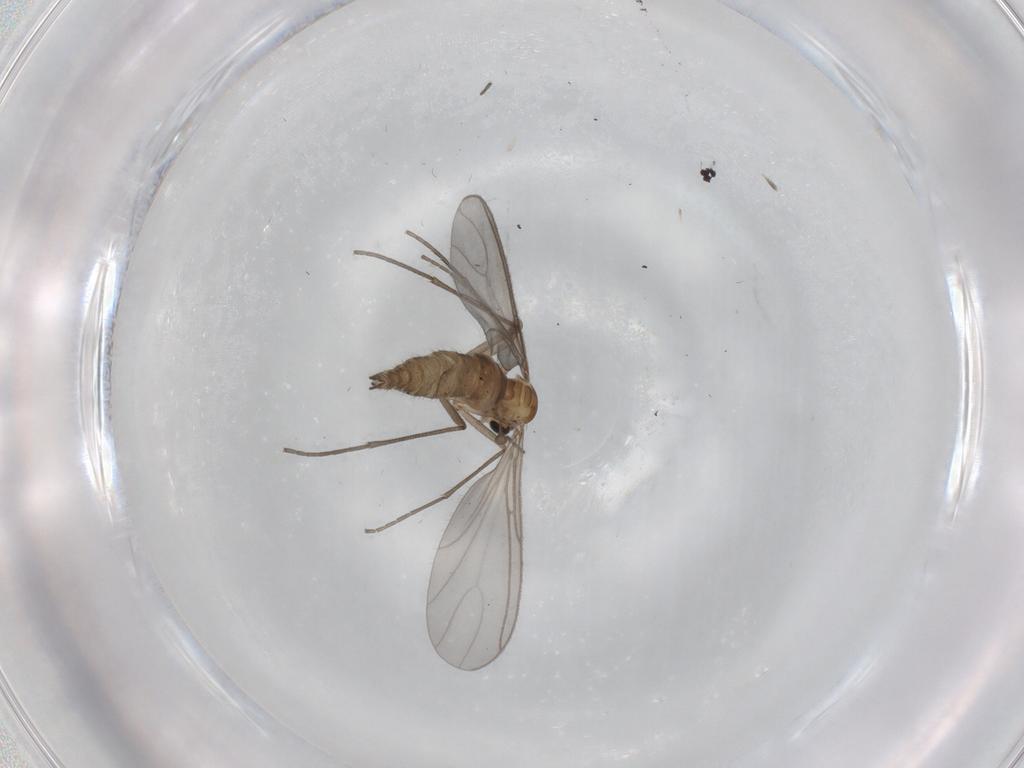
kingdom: Animalia
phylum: Arthropoda
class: Insecta
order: Diptera
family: Sciaridae
